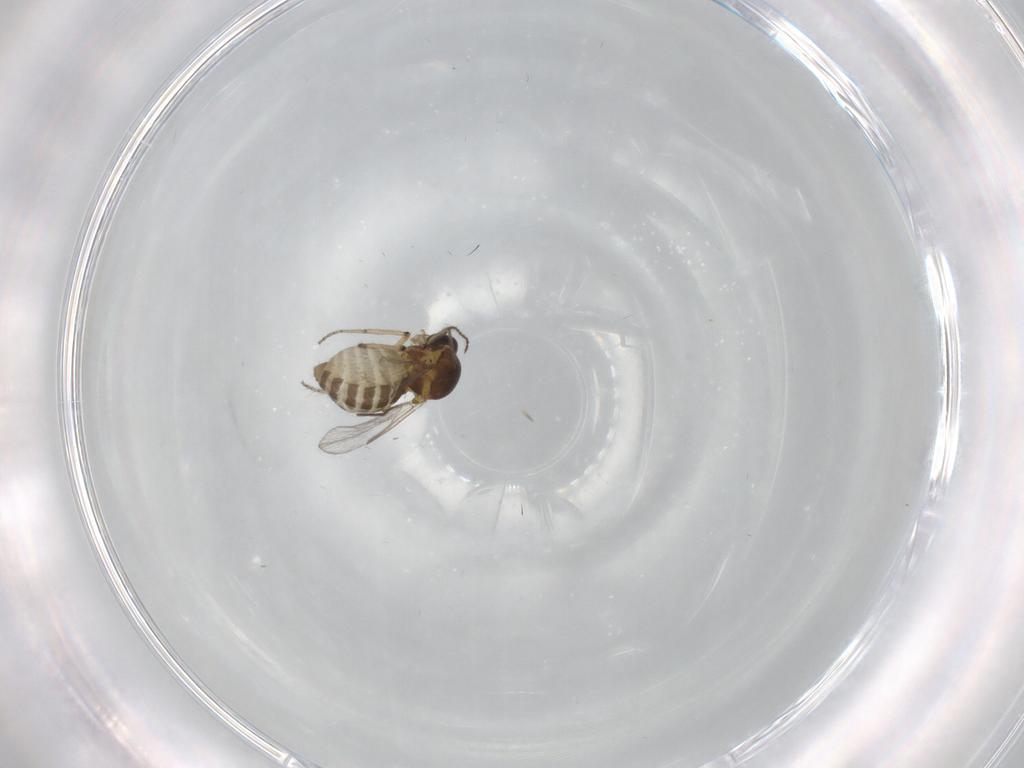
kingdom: Animalia
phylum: Arthropoda
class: Insecta
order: Diptera
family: Ceratopogonidae
